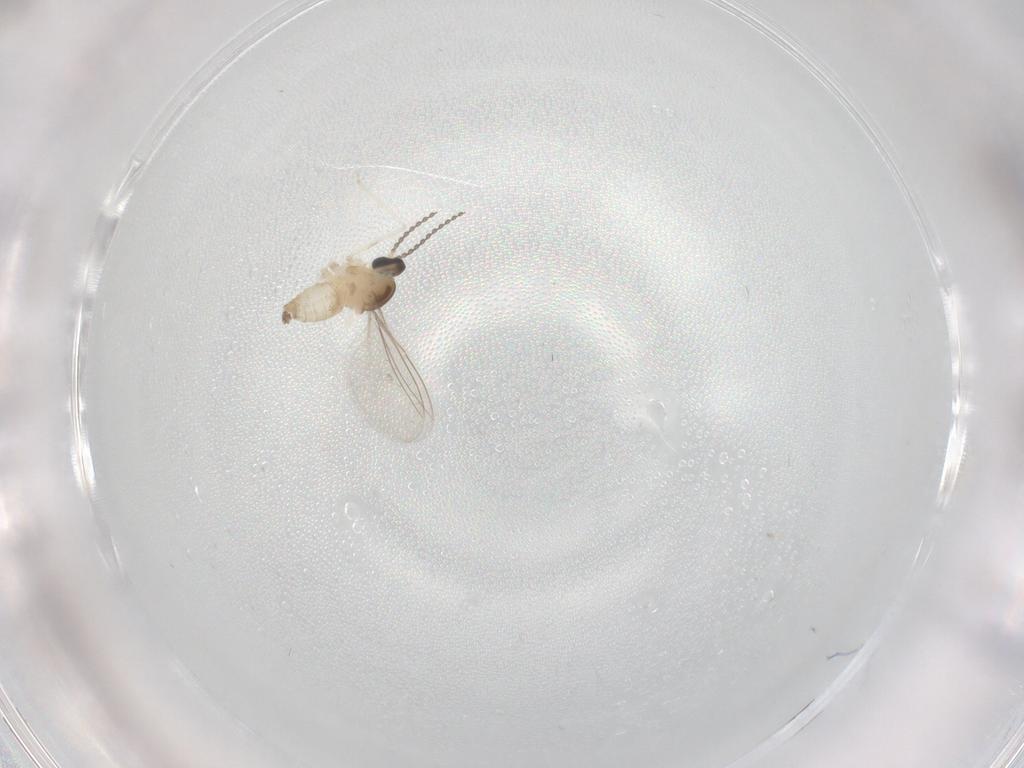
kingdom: Animalia
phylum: Arthropoda
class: Insecta
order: Diptera
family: Cecidomyiidae
